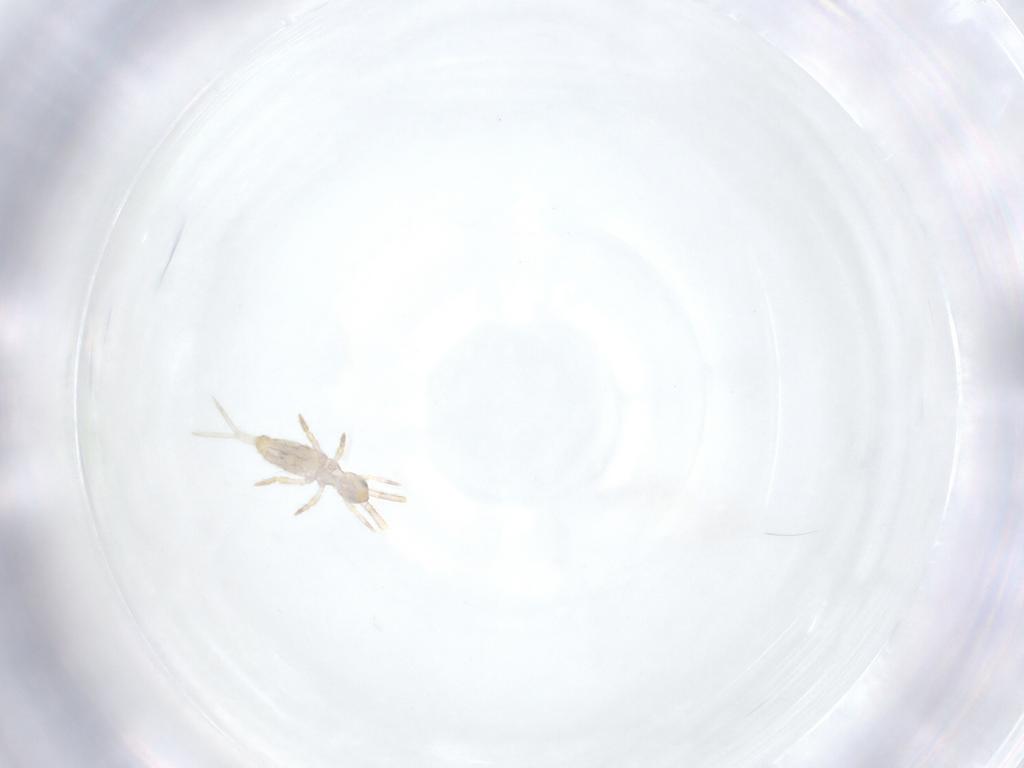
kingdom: Animalia
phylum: Arthropoda
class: Collembola
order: Entomobryomorpha
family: Entomobryidae
